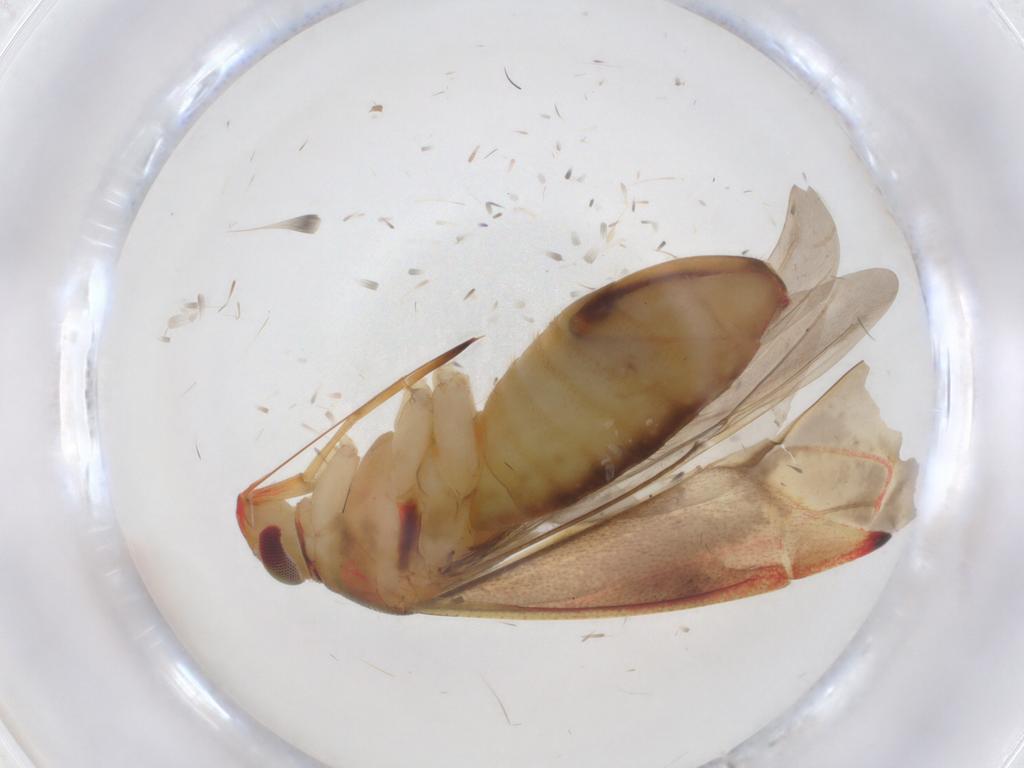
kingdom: Animalia
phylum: Arthropoda
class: Insecta
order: Hemiptera
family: Miridae
